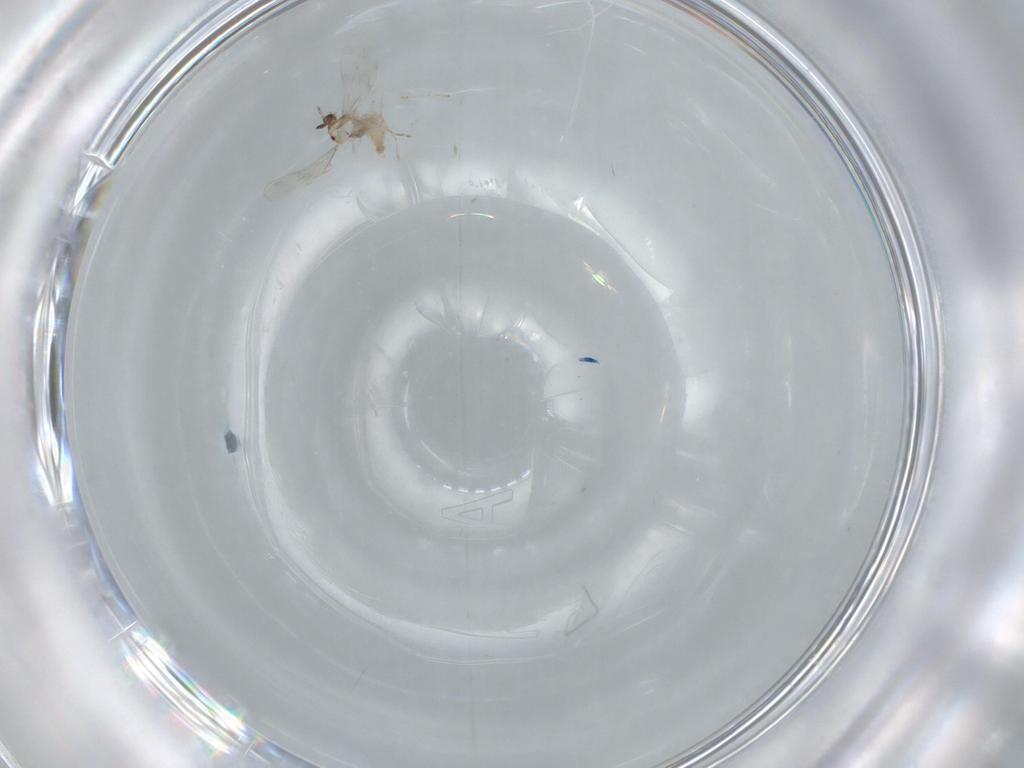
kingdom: Animalia
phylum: Arthropoda
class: Insecta
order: Diptera
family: Cecidomyiidae
